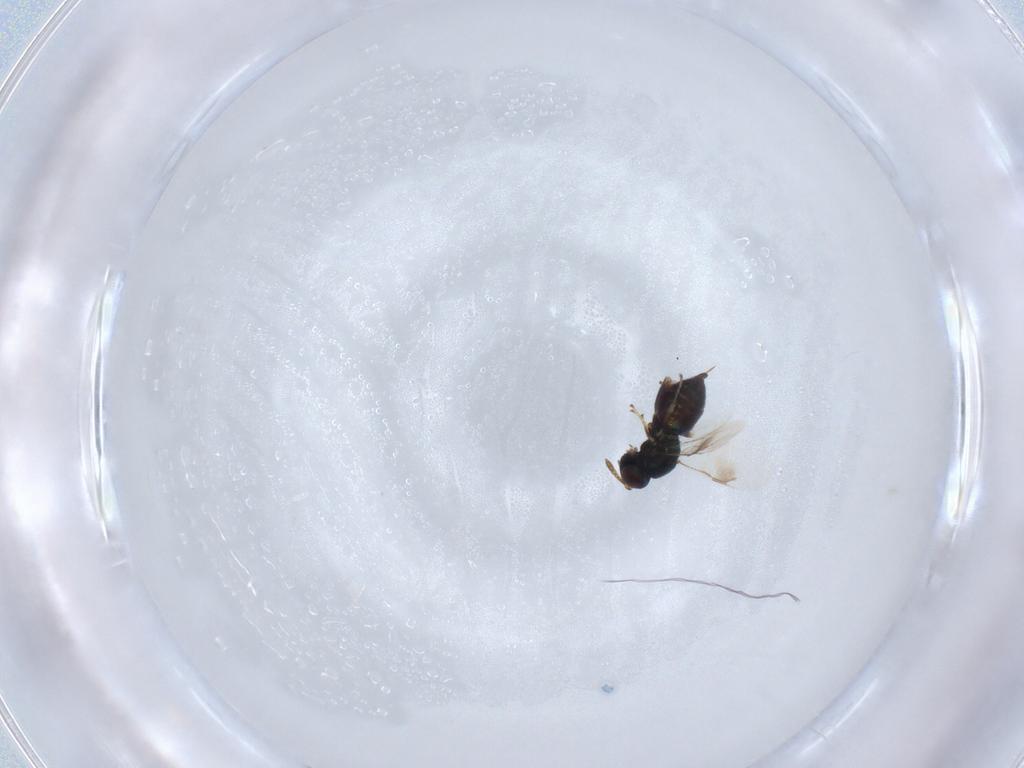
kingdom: Animalia
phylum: Arthropoda
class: Insecta
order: Hymenoptera
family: Pteromalidae
